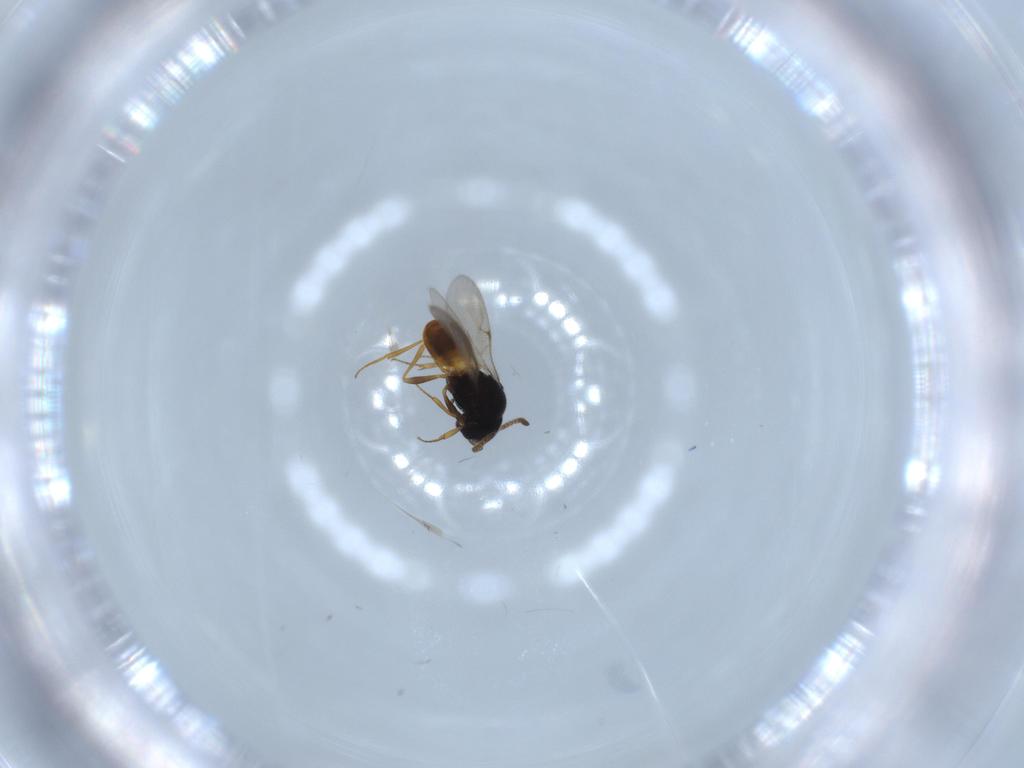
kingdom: Animalia
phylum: Arthropoda
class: Insecta
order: Hymenoptera
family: Scelionidae
